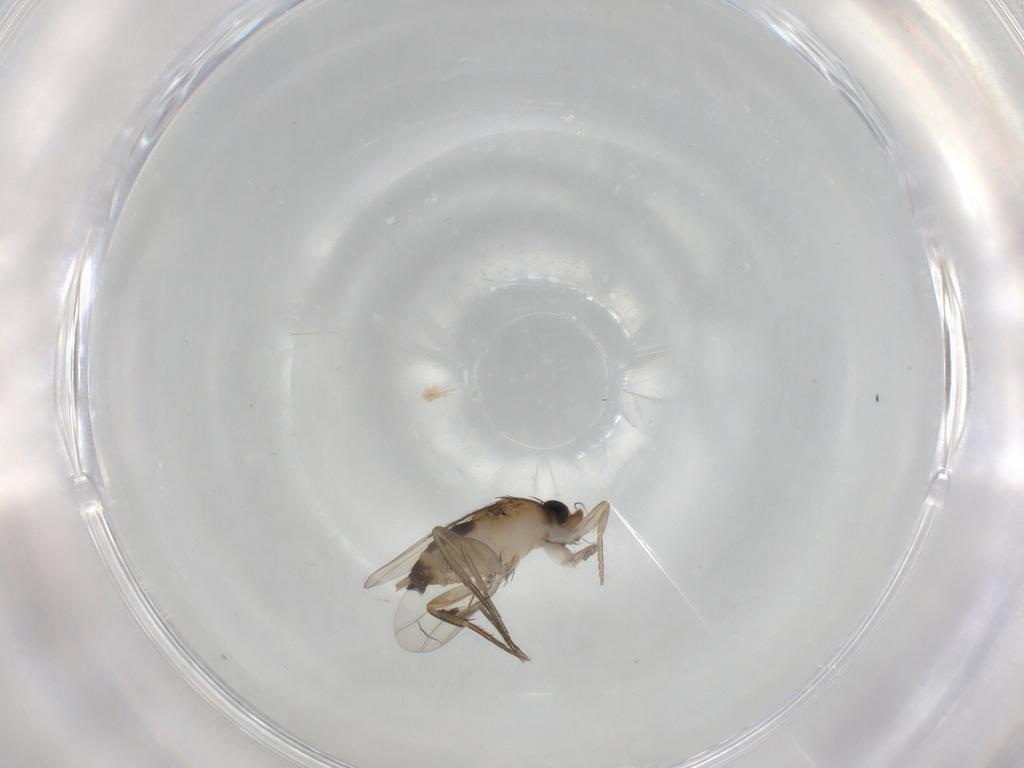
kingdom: Animalia
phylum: Arthropoda
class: Insecta
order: Diptera
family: Phoridae
